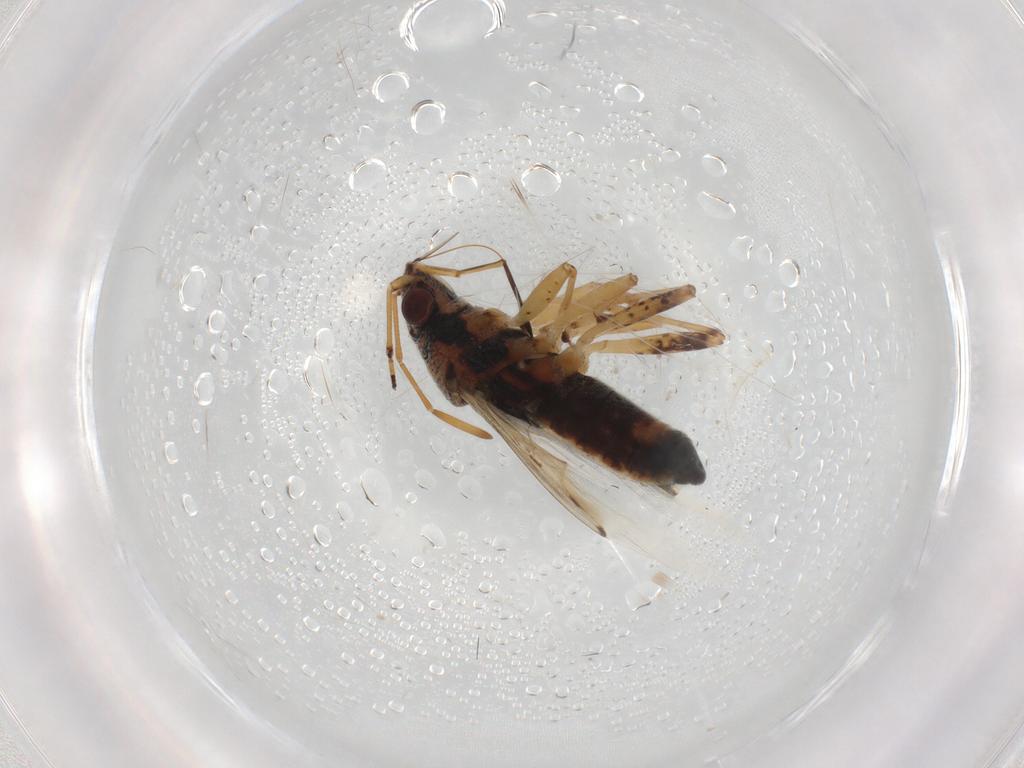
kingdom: Animalia
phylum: Arthropoda
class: Insecta
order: Hemiptera
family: Lygaeidae
